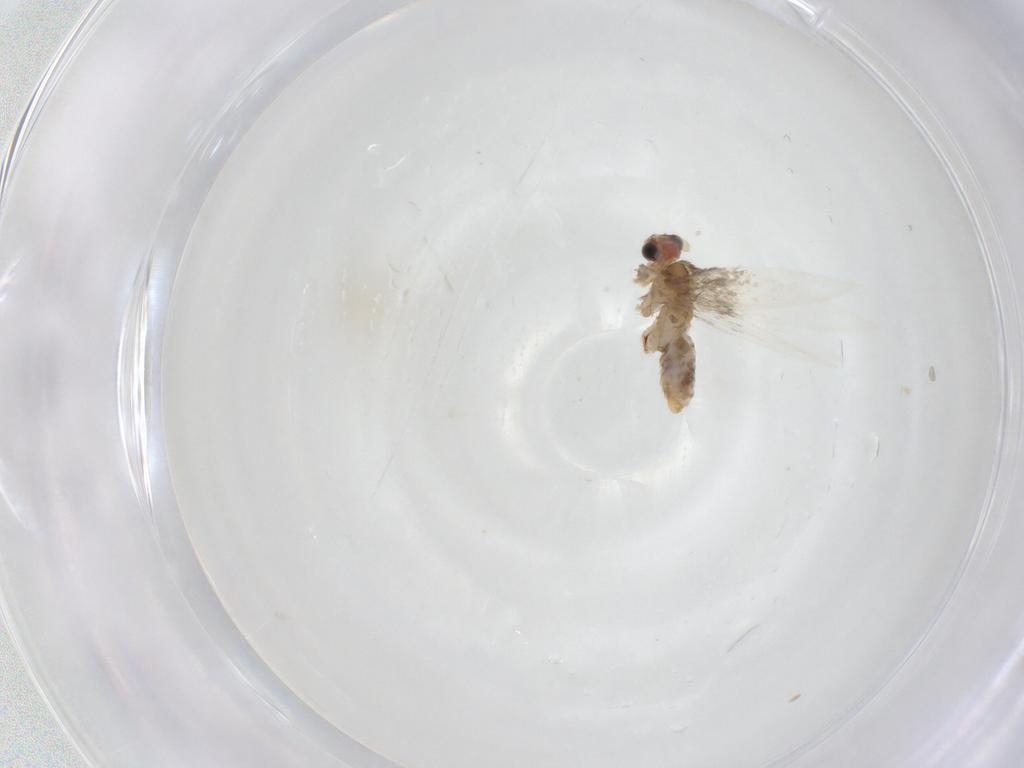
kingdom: Animalia
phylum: Arthropoda
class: Insecta
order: Lepidoptera
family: Nepticulidae
